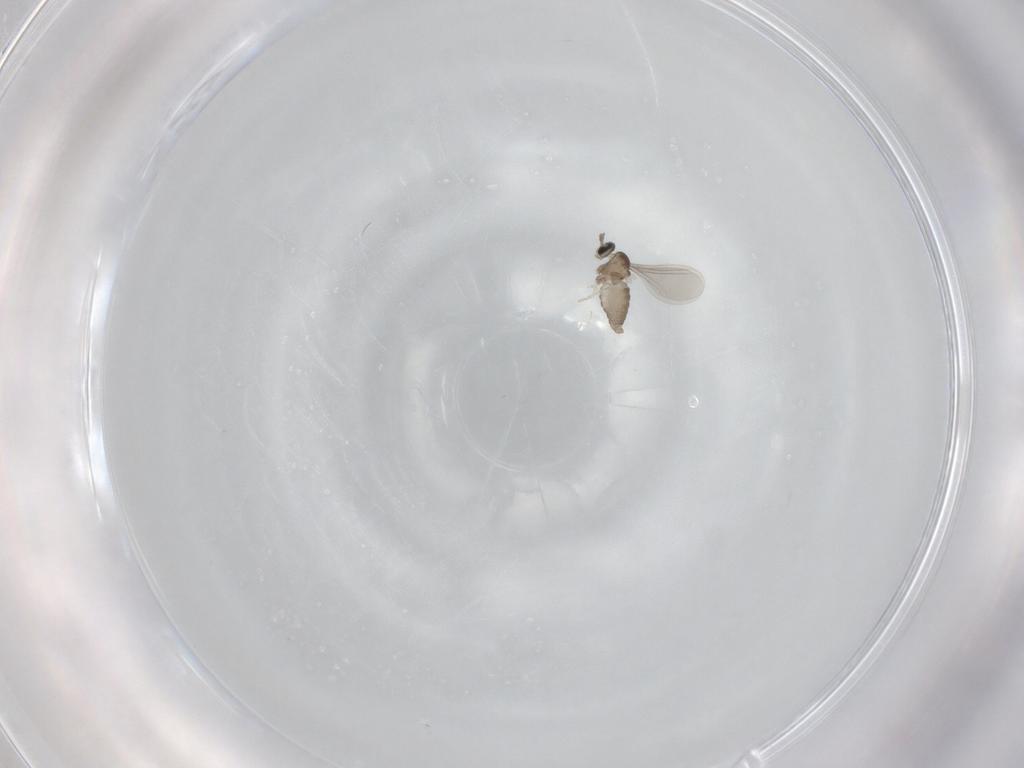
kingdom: Animalia
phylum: Arthropoda
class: Insecta
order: Diptera
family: Cecidomyiidae
